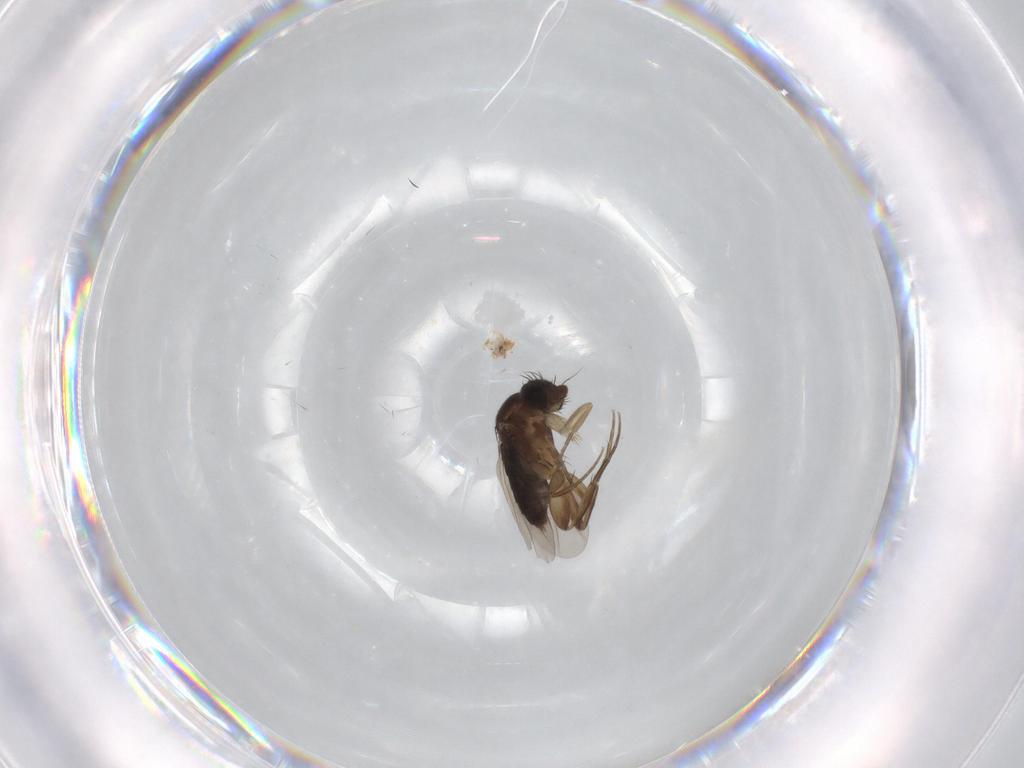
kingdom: Animalia
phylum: Arthropoda
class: Insecta
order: Diptera
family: Phoridae
